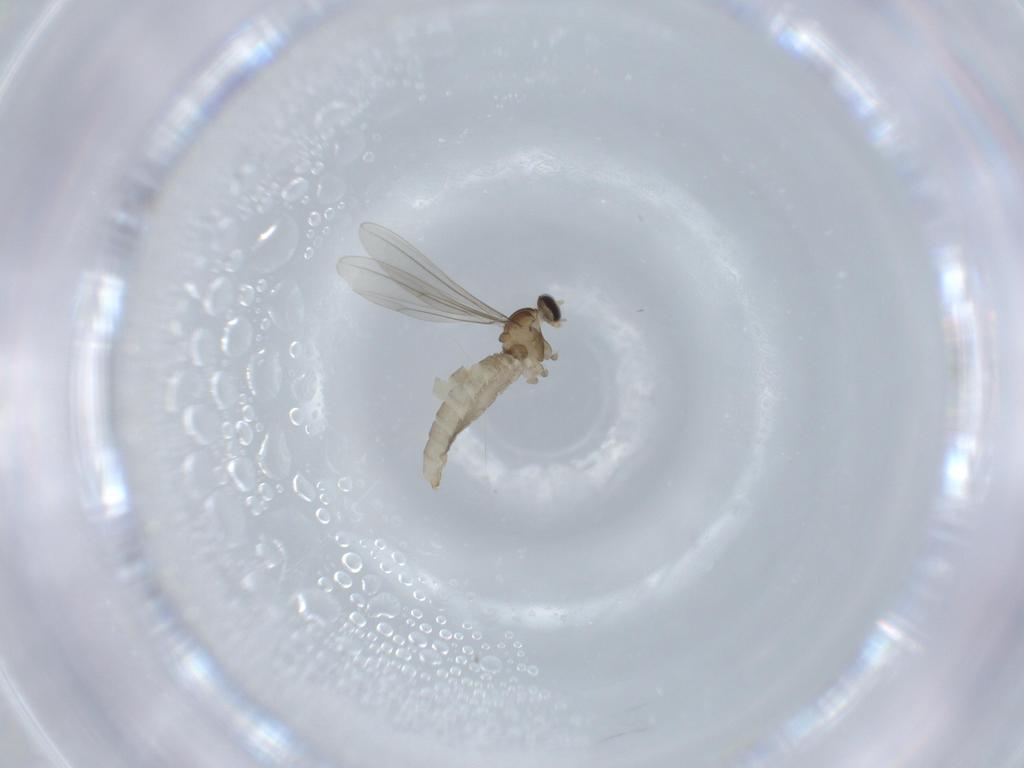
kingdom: Animalia
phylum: Arthropoda
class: Insecta
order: Diptera
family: Cecidomyiidae
